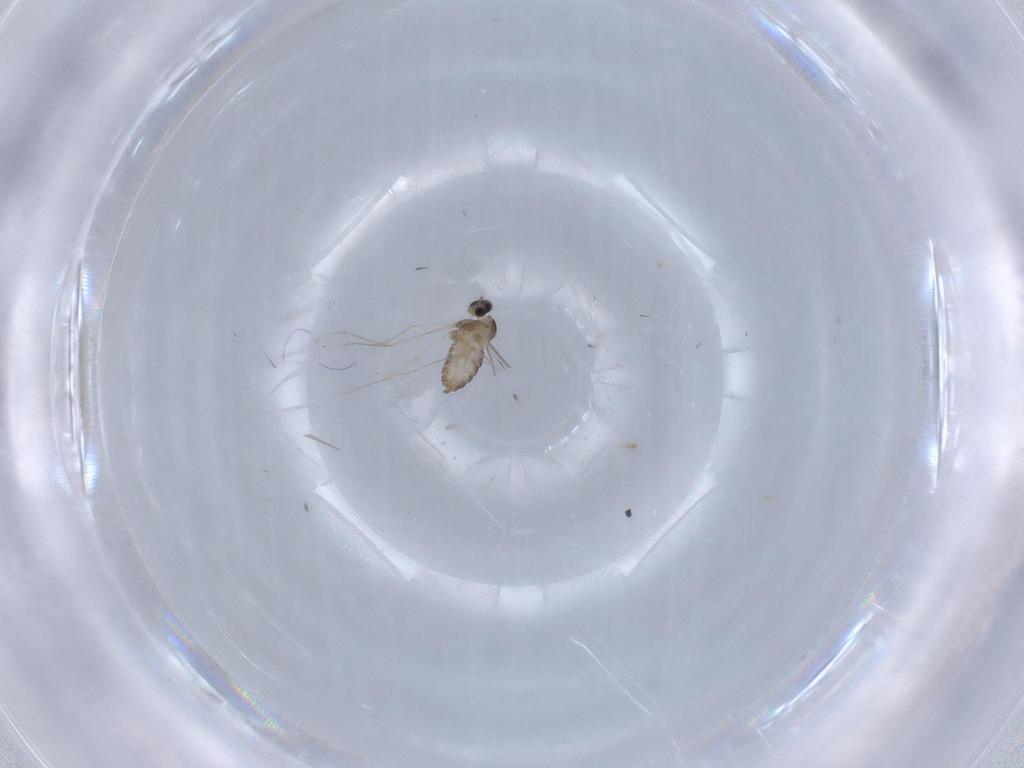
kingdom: Animalia
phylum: Arthropoda
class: Insecta
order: Diptera
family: Cecidomyiidae
